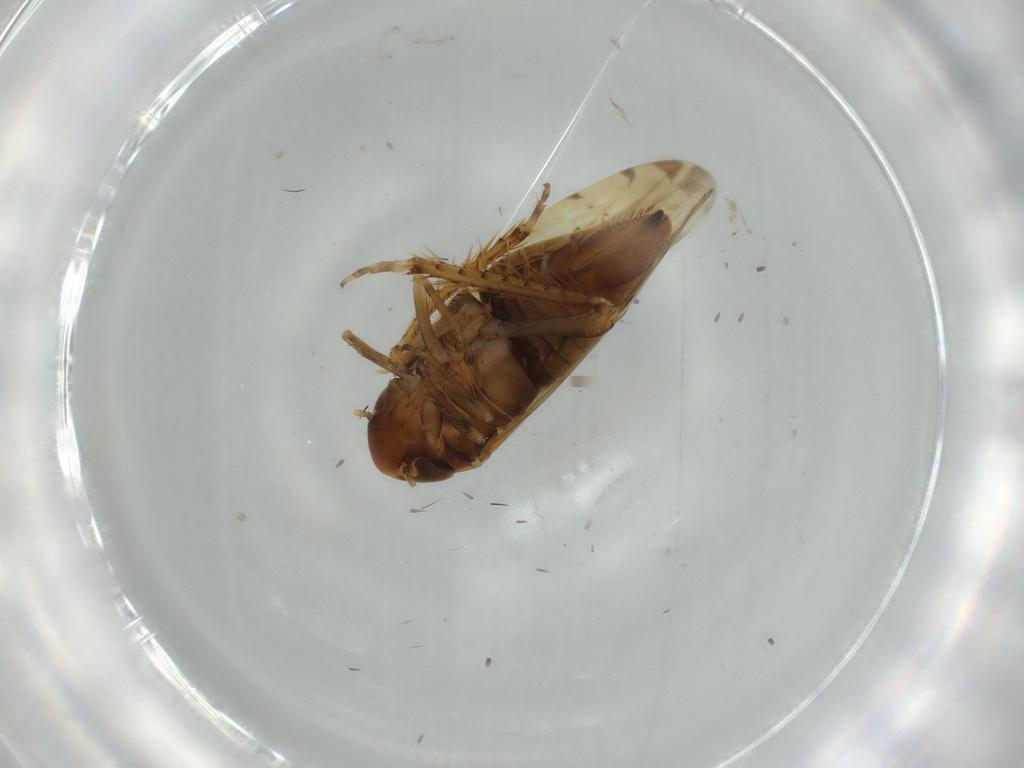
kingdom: Animalia
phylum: Arthropoda
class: Insecta
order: Hemiptera
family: Cicadellidae
